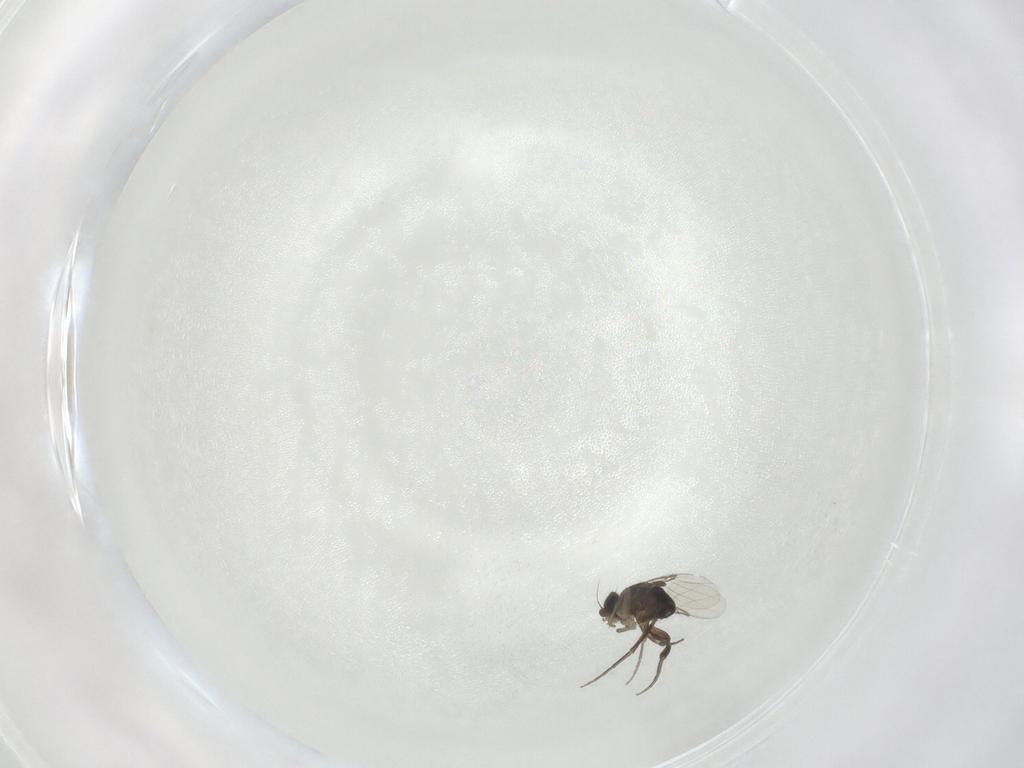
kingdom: Animalia
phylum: Arthropoda
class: Insecta
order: Diptera
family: Phoridae
